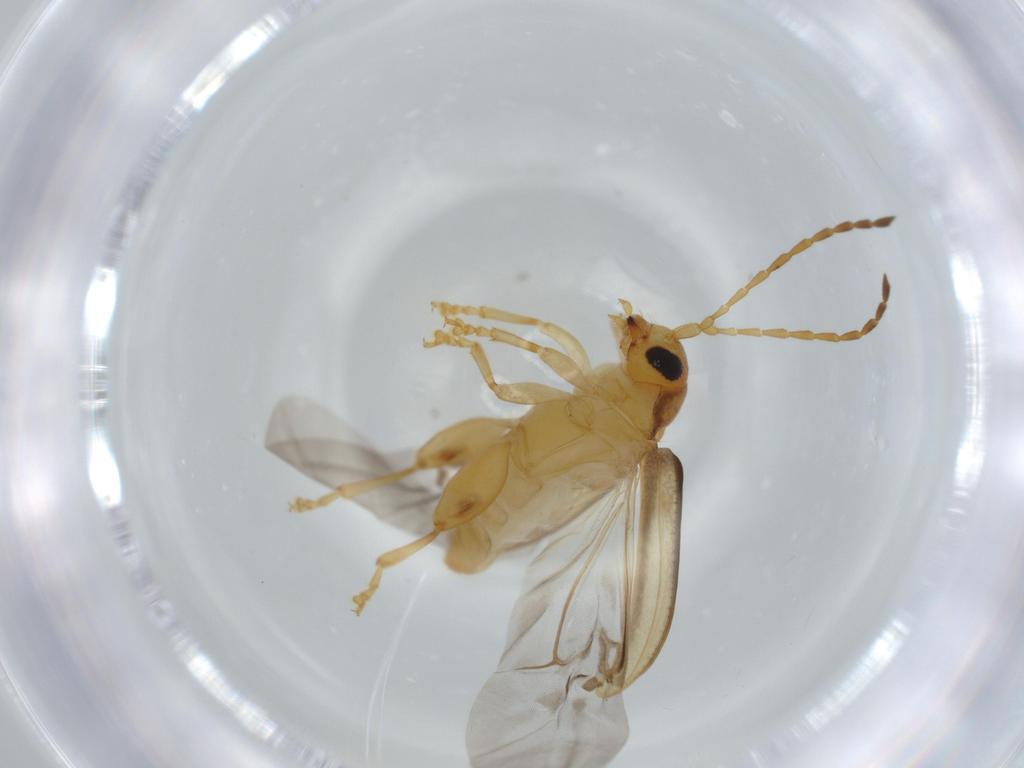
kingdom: Animalia
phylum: Arthropoda
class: Insecta
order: Coleoptera
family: Chrysomelidae
